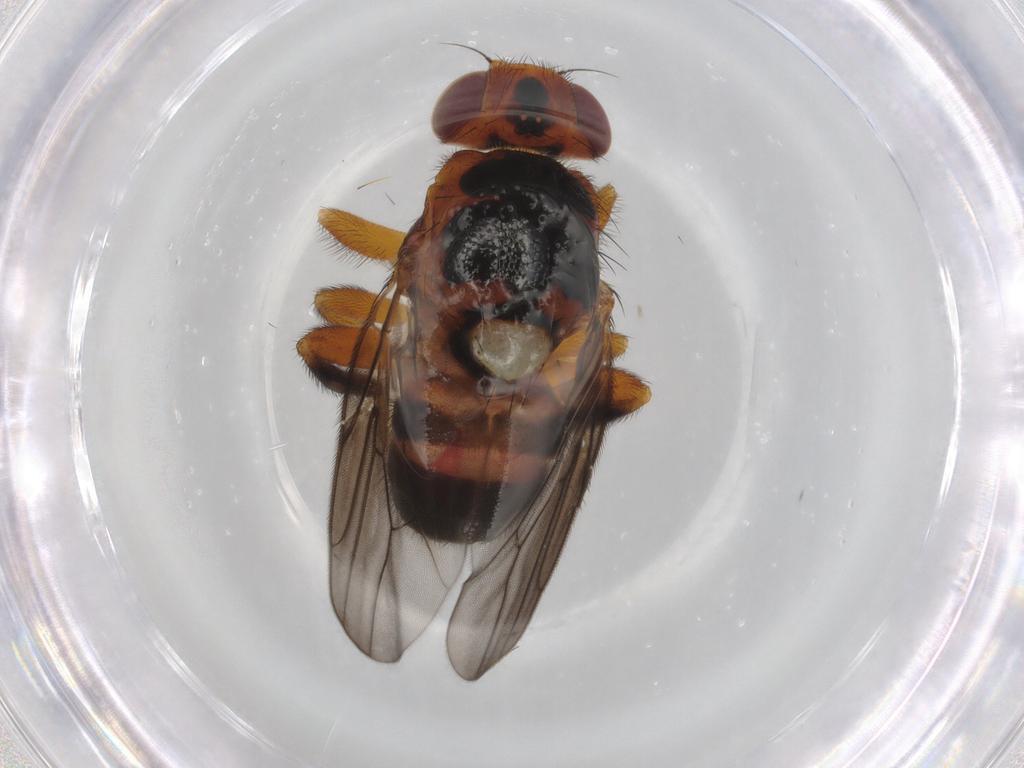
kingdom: Animalia
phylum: Arthropoda
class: Insecta
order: Diptera
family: Chloropidae
